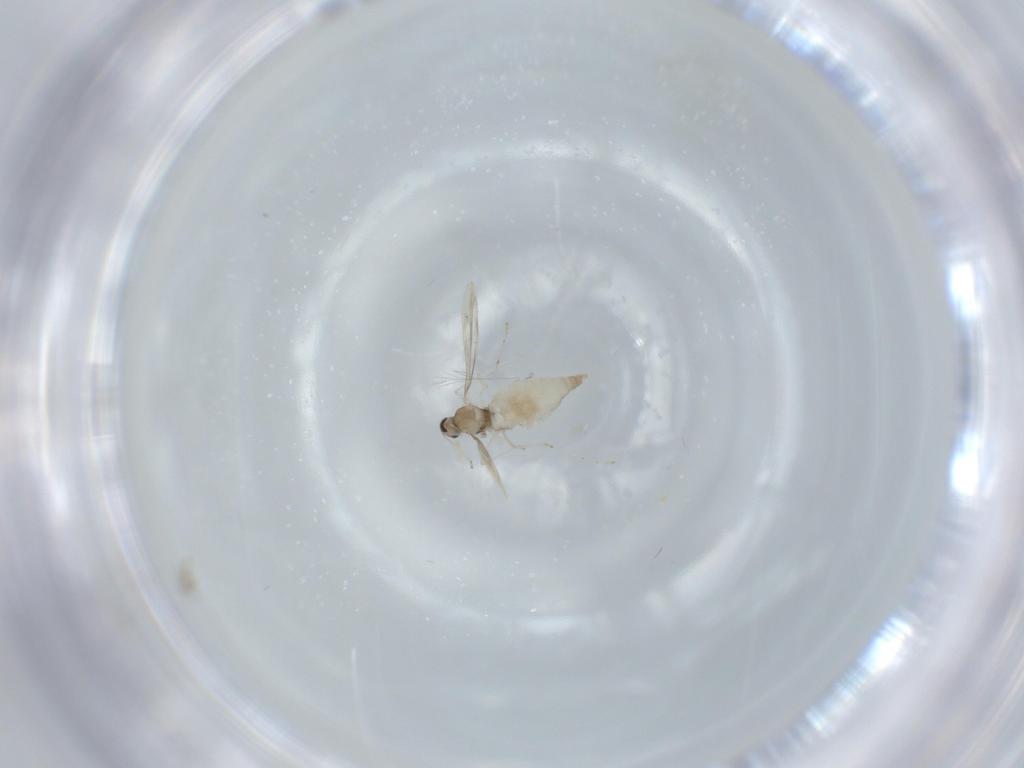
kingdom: Animalia
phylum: Arthropoda
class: Insecta
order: Diptera
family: Cecidomyiidae
